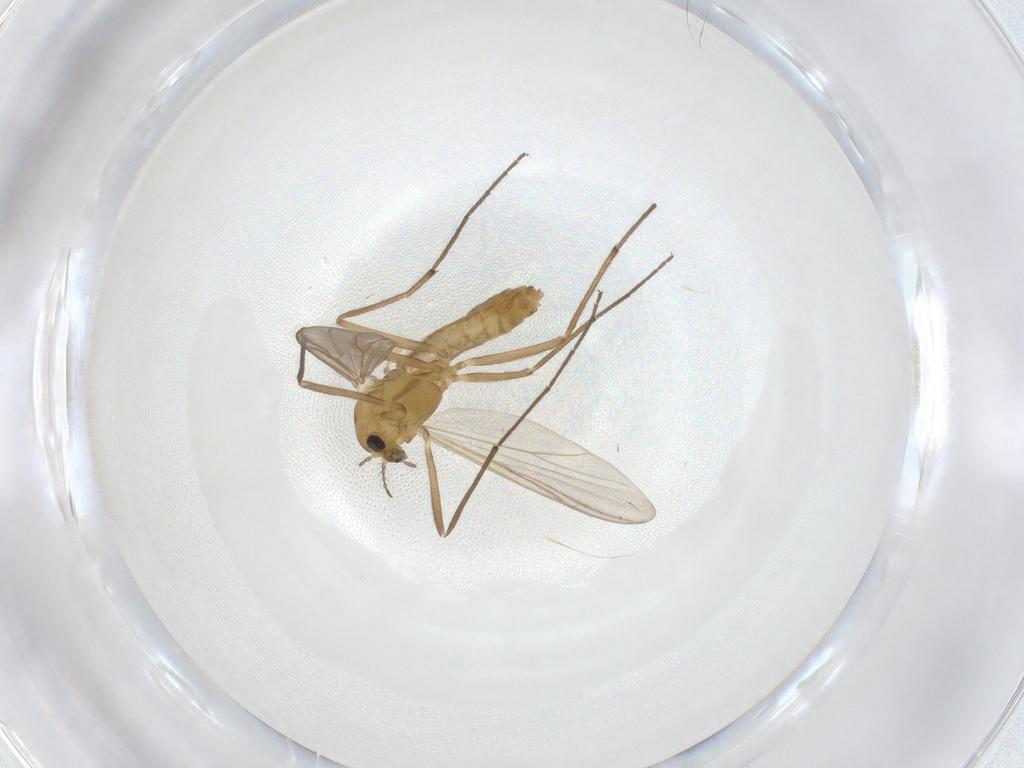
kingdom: Animalia
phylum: Arthropoda
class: Insecta
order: Diptera
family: Chironomidae
